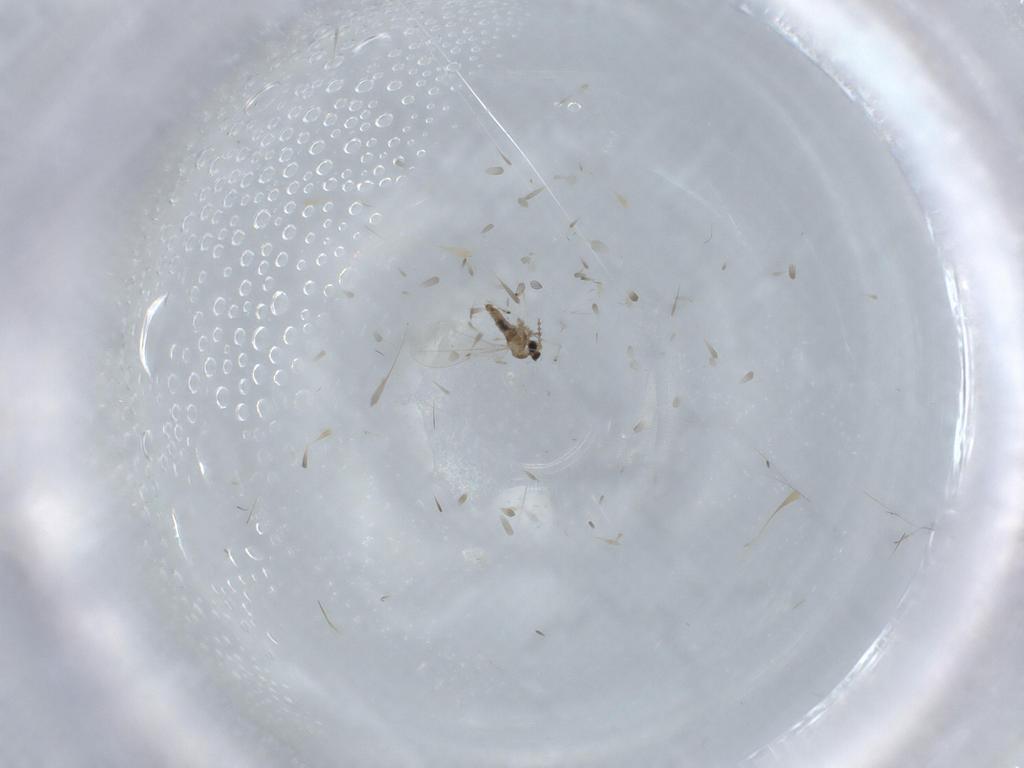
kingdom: Animalia
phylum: Arthropoda
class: Insecta
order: Diptera
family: Cecidomyiidae
